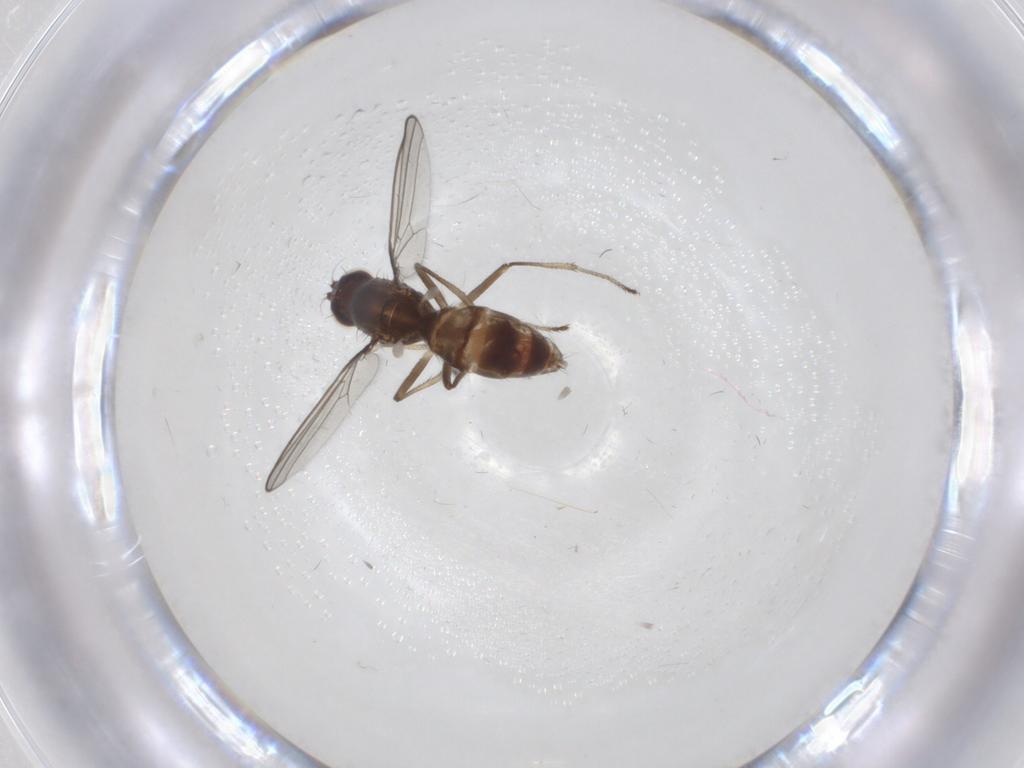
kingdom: Animalia
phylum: Arthropoda
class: Insecta
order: Diptera
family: Sepsidae
